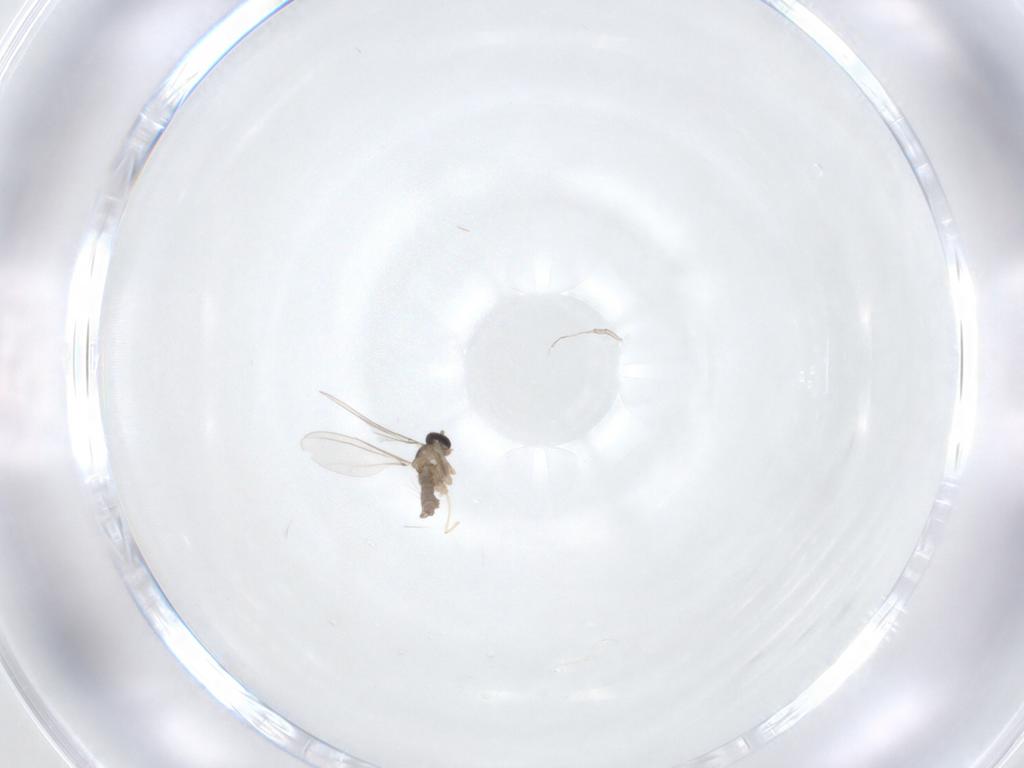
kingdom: Animalia
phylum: Arthropoda
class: Insecta
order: Diptera
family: Cecidomyiidae
